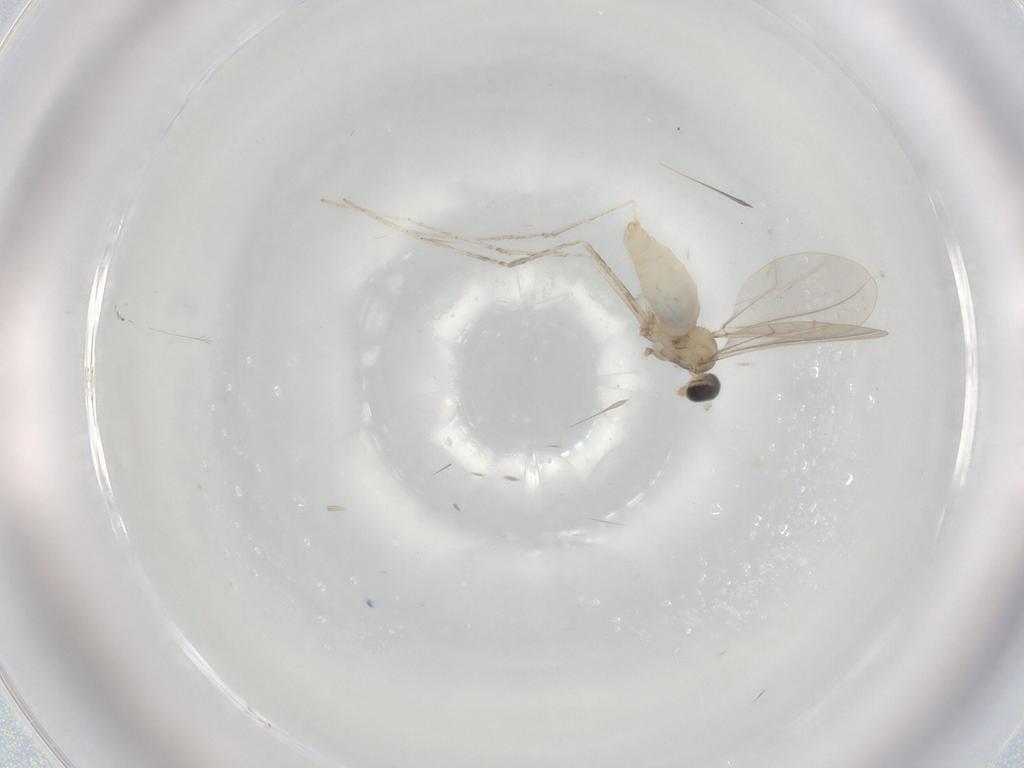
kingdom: Animalia
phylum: Arthropoda
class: Insecta
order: Diptera
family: Cecidomyiidae
